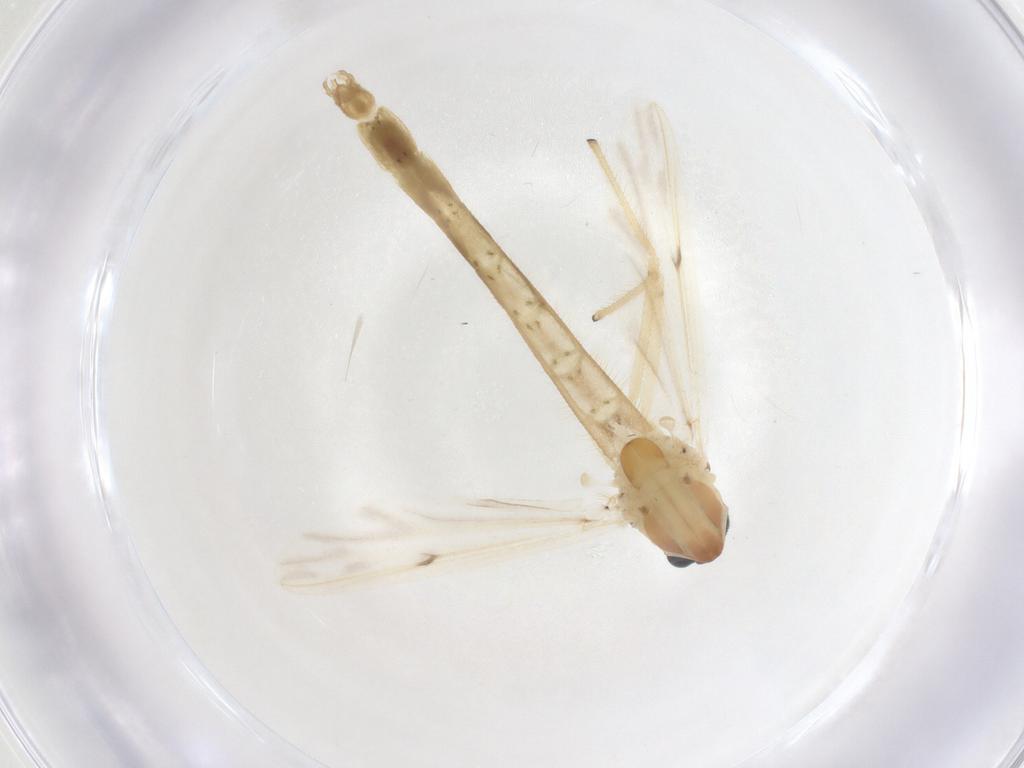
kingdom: Animalia
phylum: Arthropoda
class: Insecta
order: Diptera
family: Chironomidae
